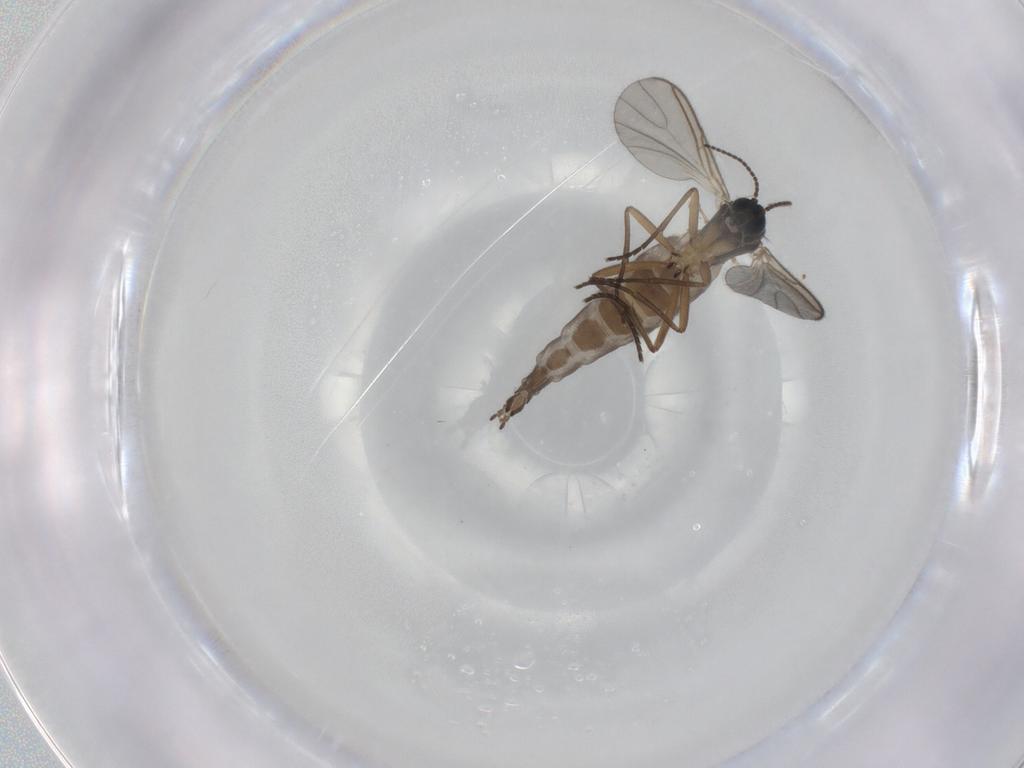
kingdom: Animalia
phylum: Arthropoda
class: Insecta
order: Diptera
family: Sciaridae
